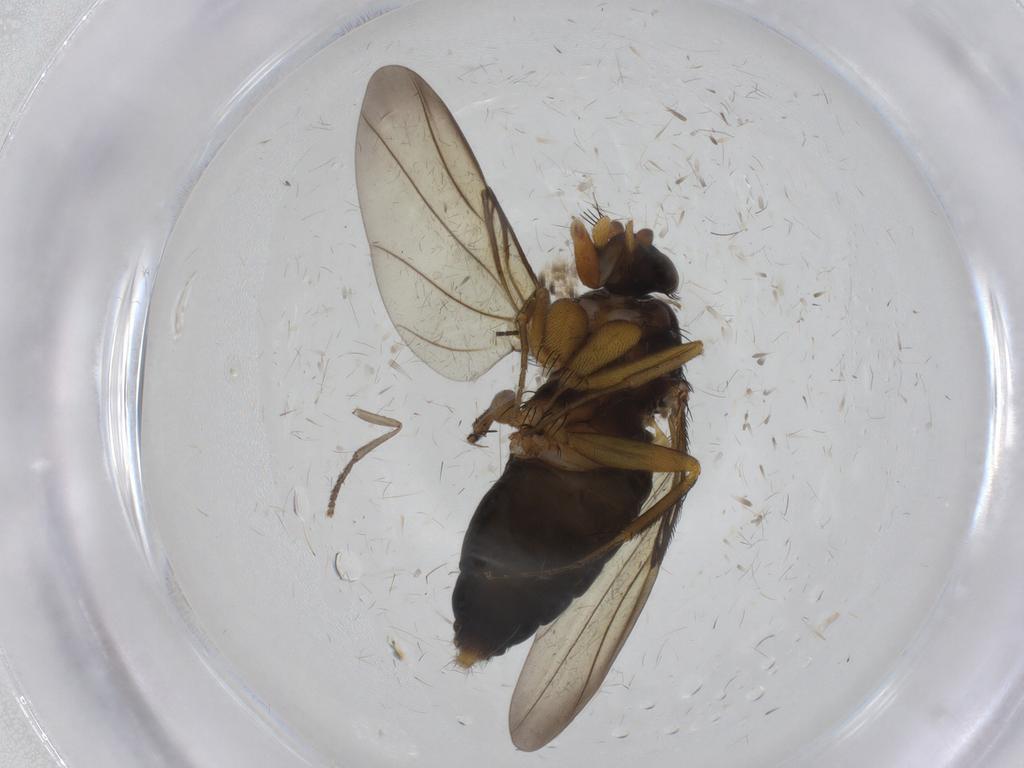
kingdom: Animalia
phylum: Arthropoda
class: Insecta
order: Diptera
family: Phoridae
